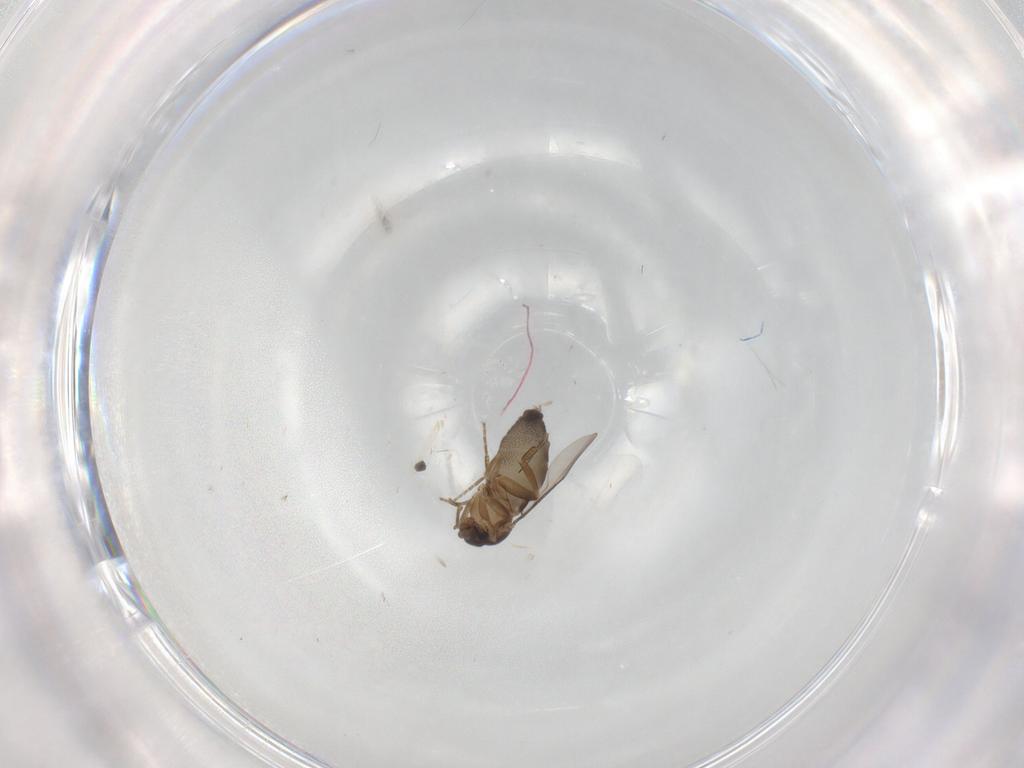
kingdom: Animalia
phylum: Arthropoda
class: Insecta
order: Diptera
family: Phoridae
